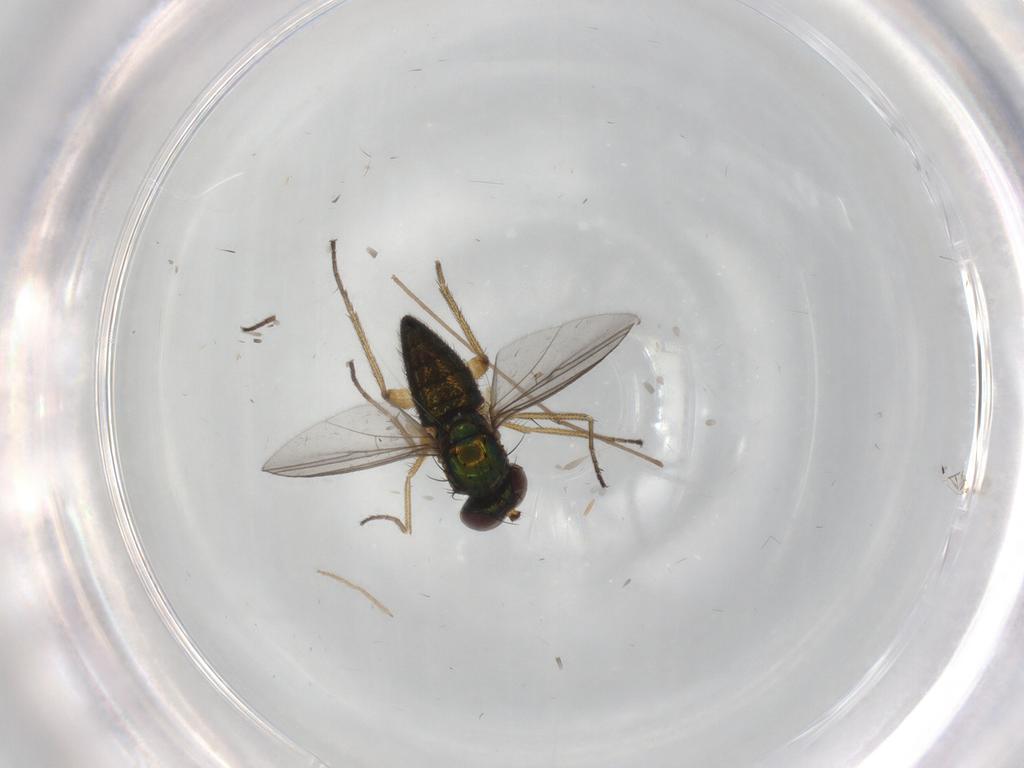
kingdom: Animalia
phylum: Arthropoda
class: Insecta
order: Diptera
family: Chironomidae
